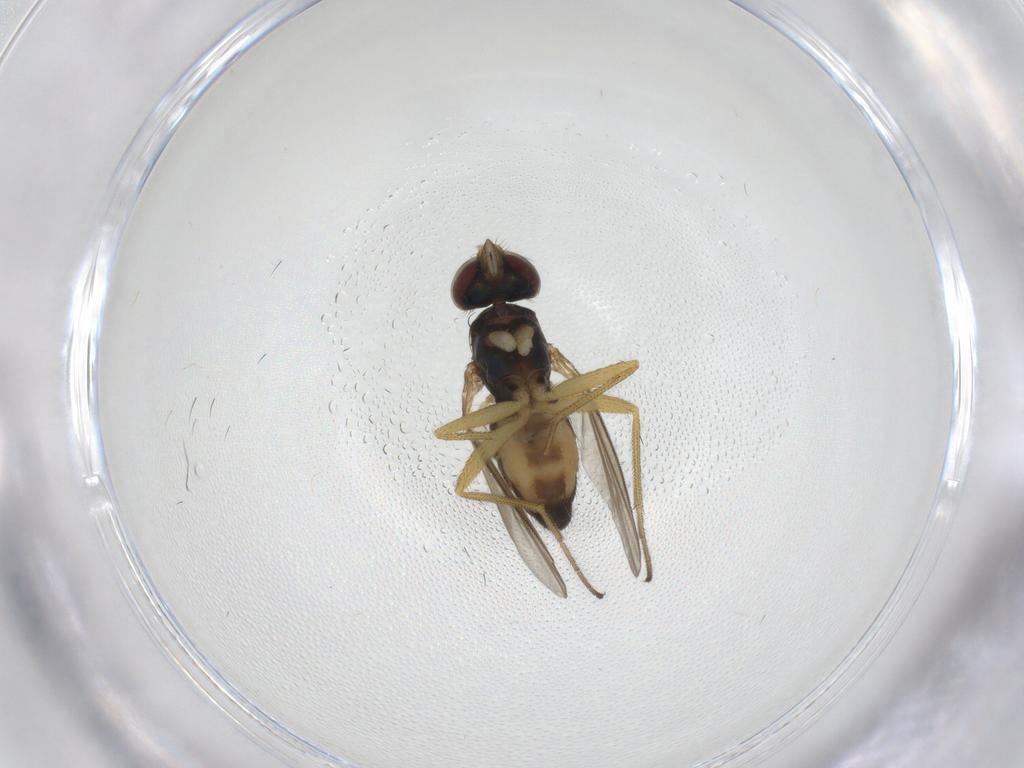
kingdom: Animalia
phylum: Arthropoda
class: Insecta
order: Diptera
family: Dolichopodidae
